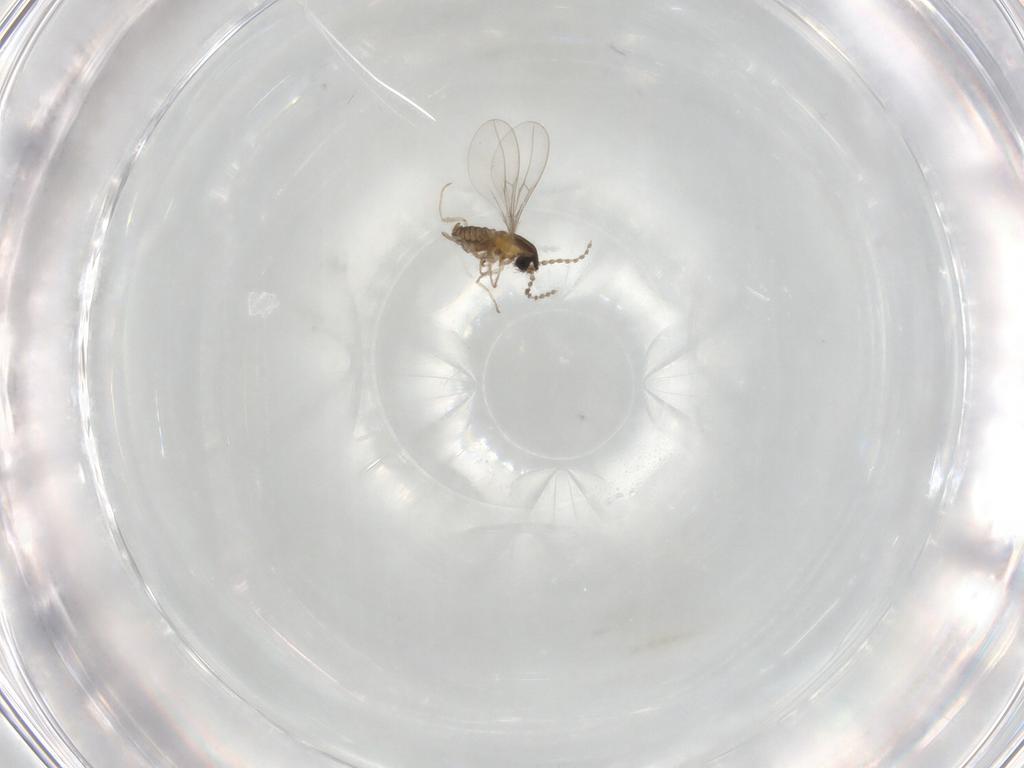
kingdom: Animalia
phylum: Arthropoda
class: Insecta
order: Diptera
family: Cecidomyiidae
